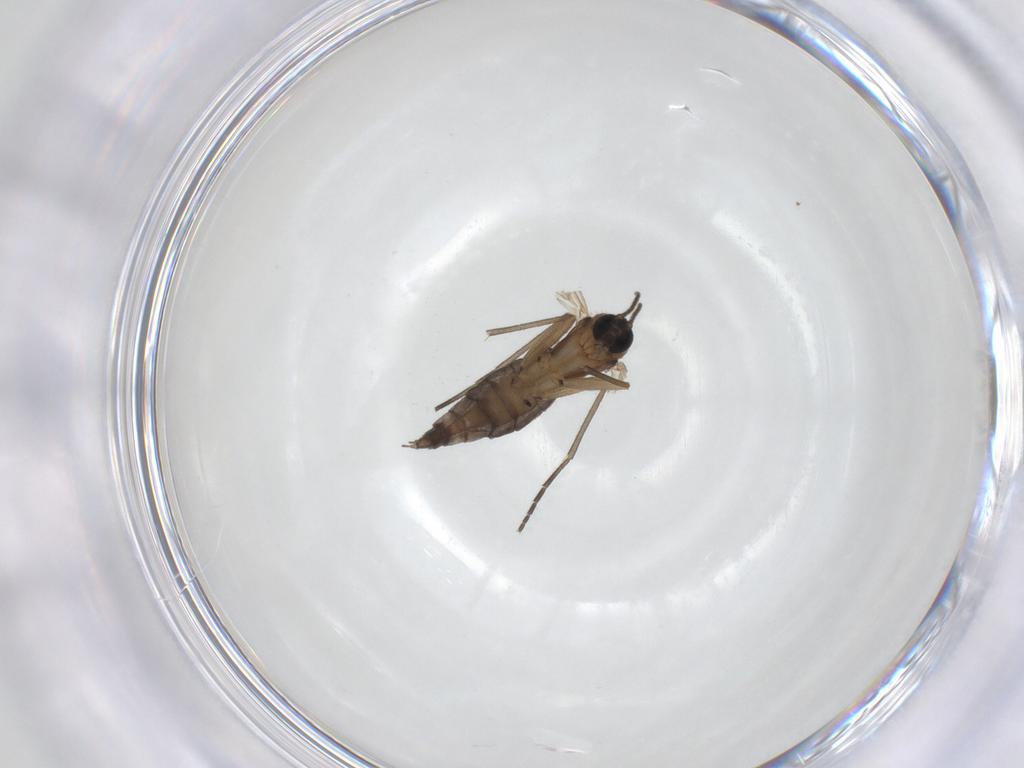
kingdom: Animalia
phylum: Arthropoda
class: Insecta
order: Diptera
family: Sciaridae
